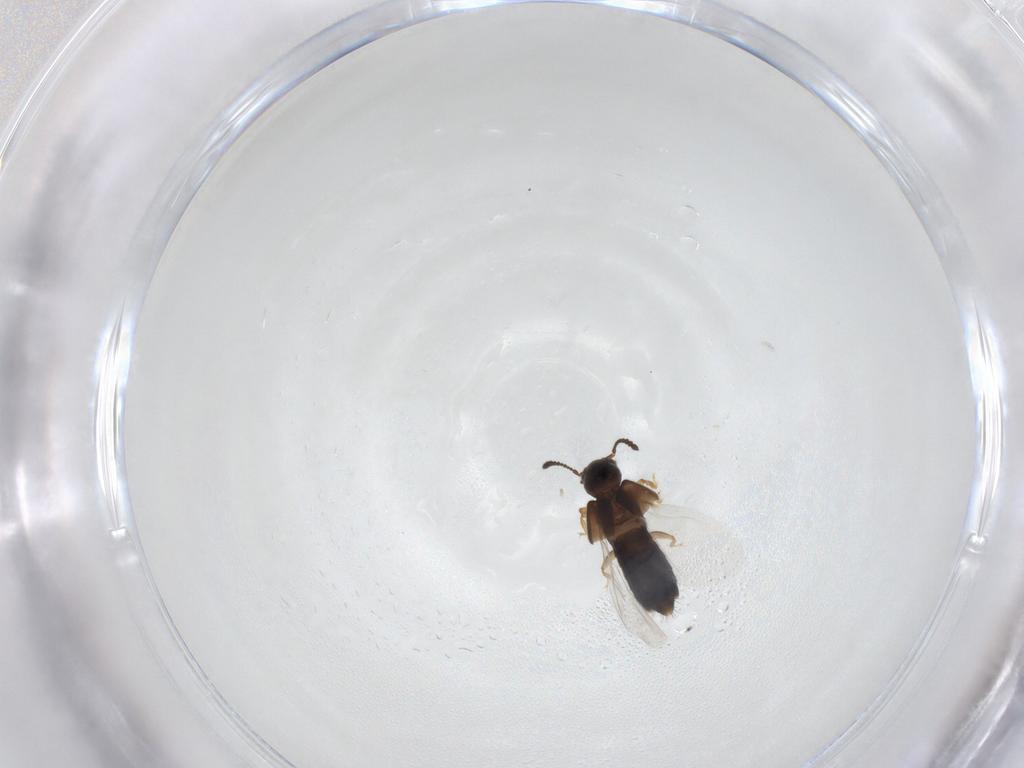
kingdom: Animalia
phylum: Arthropoda
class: Insecta
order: Coleoptera
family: Staphylinidae
